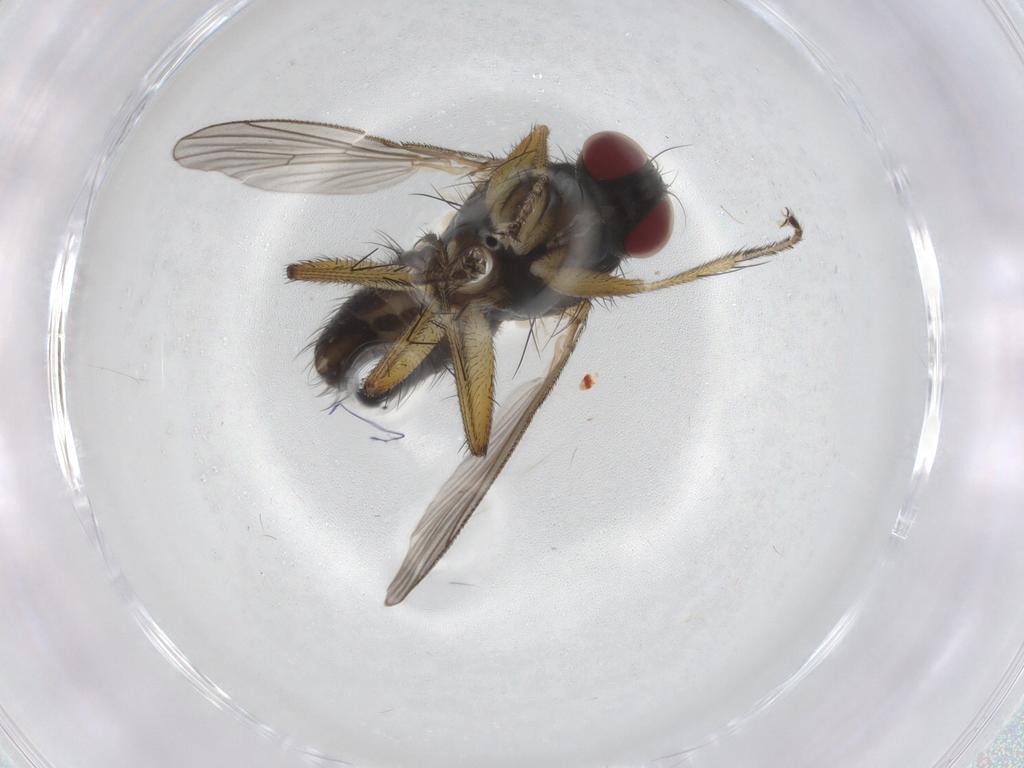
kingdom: Animalia
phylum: Arthropoda
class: Insecta
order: Diptera
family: Muscidae
